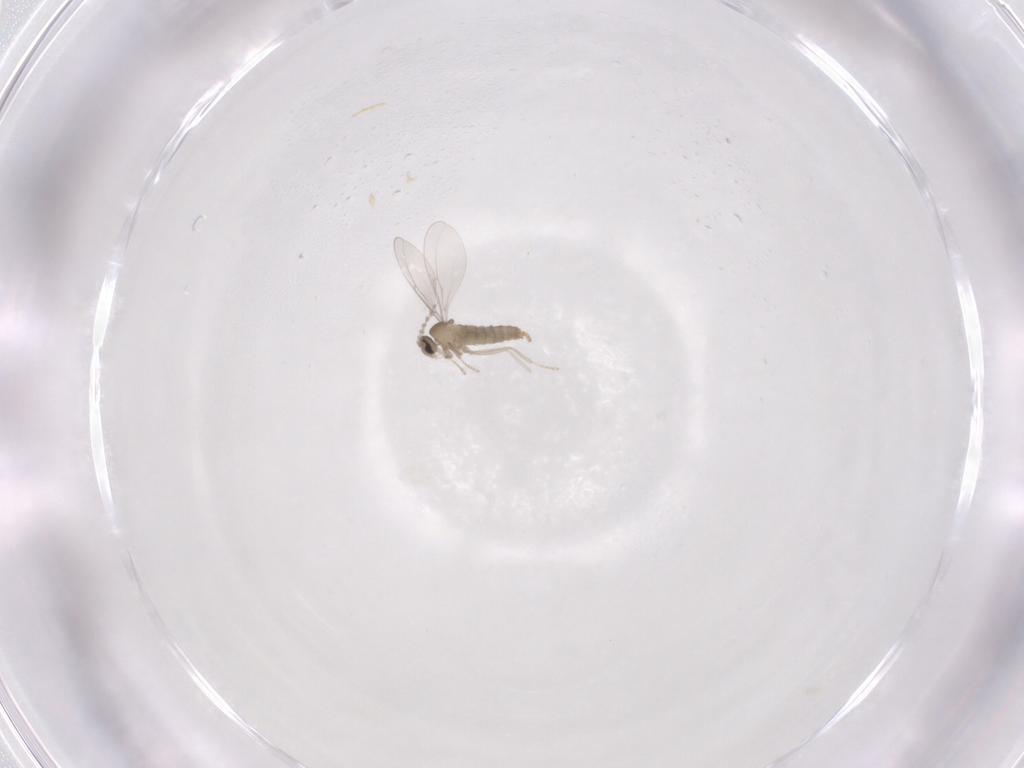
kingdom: Animalia
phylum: Arthropoda
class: Insecta
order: Diptera
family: Cecidomyiidae
